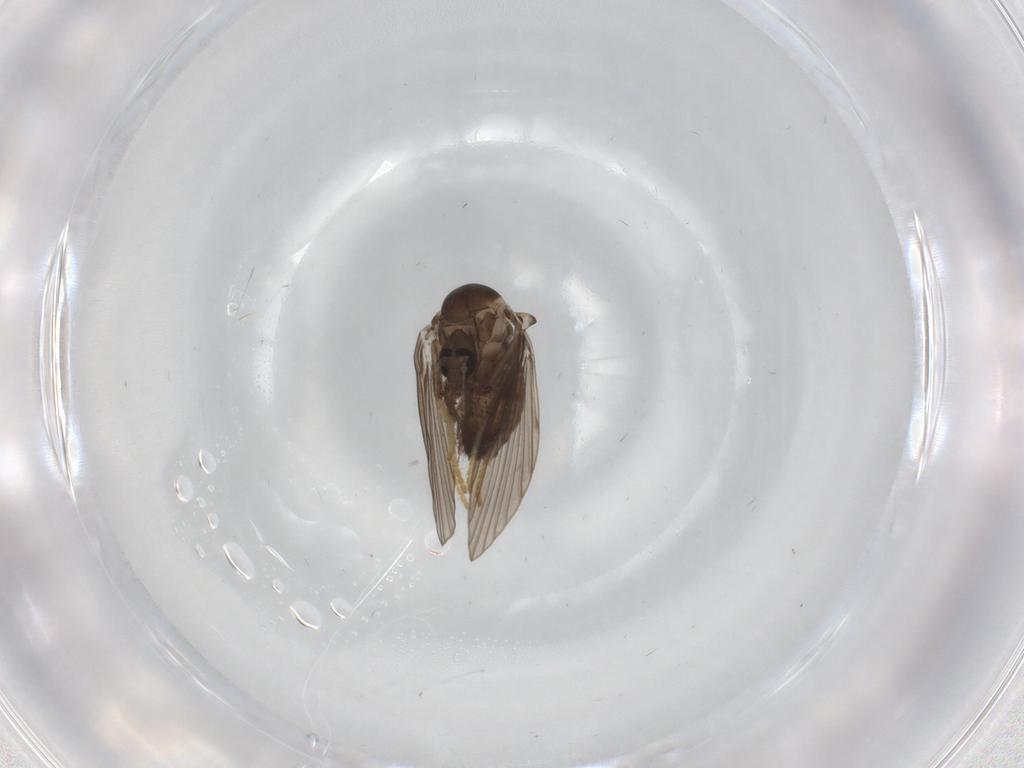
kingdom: Animalia
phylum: Arthropoda
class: Insecta
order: Diptera
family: Psychodidae
